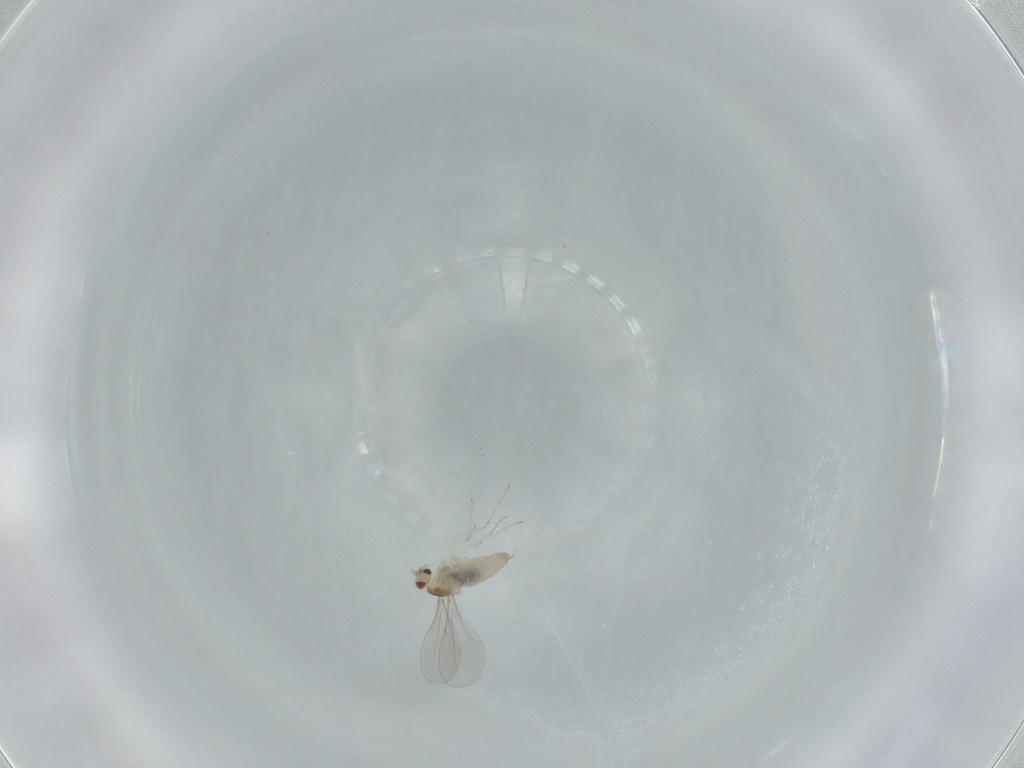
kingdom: Animalia
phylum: Arthropoda
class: Insecta
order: Diptera
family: Cecidomyiidae
